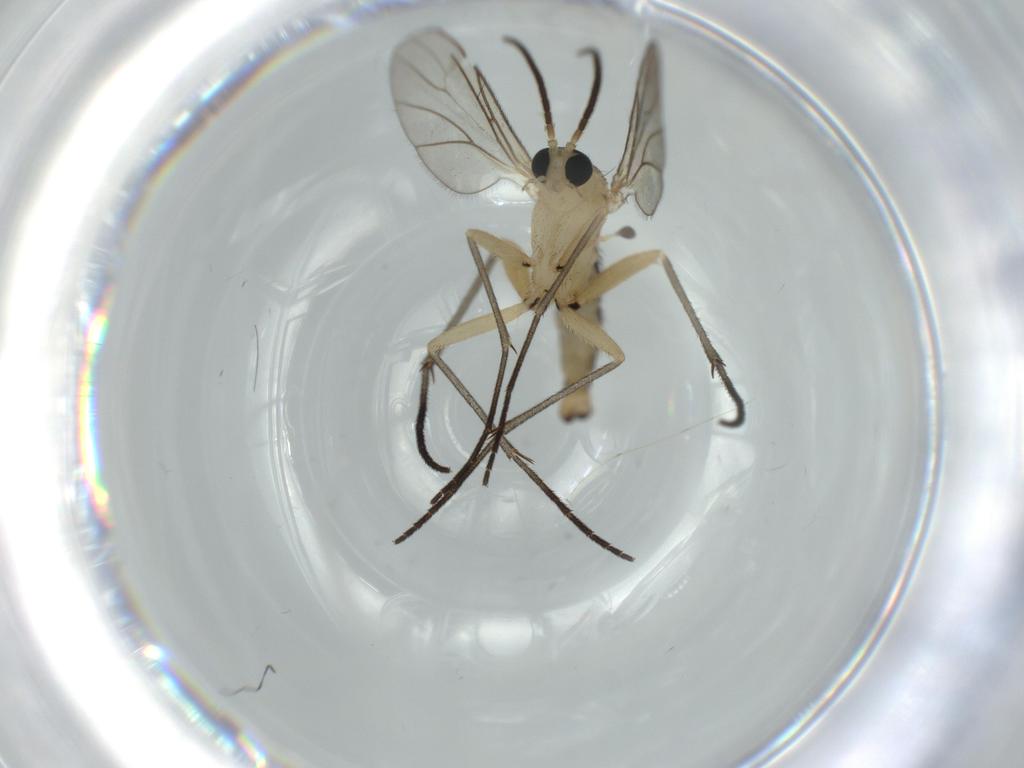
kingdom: Animalia
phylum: Arthropoda
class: Insecta
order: Diptera
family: Sciaridae
